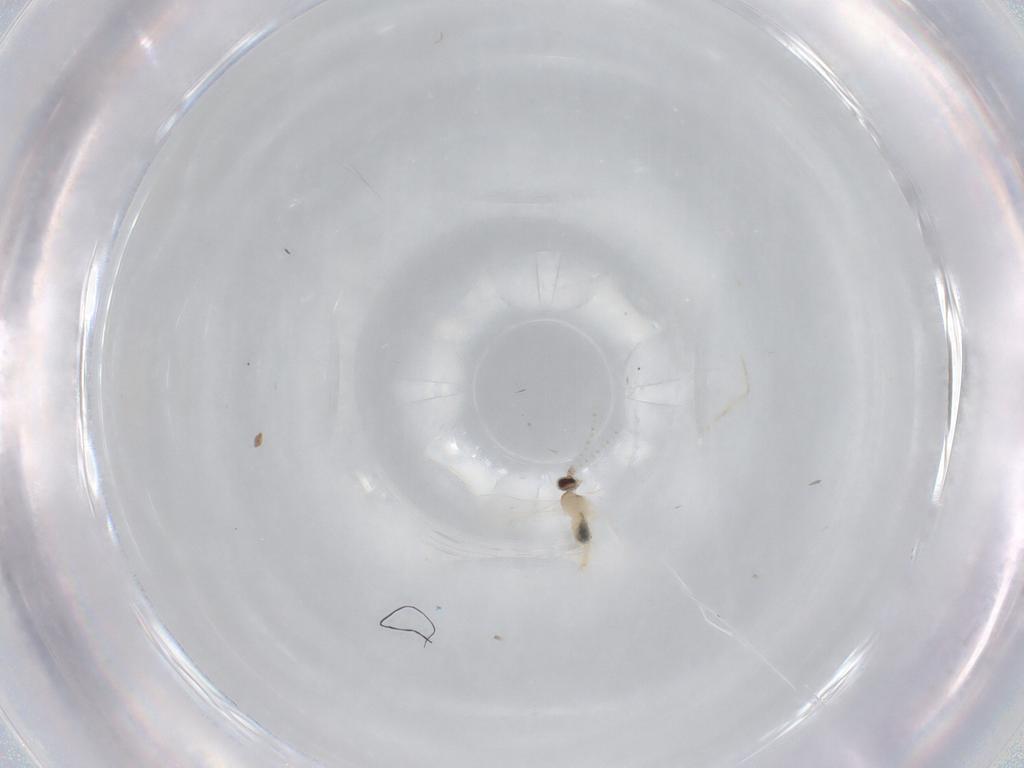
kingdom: Animalia
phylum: Arthropoda
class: Insecta
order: Diptera
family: Cecidomyiidae
